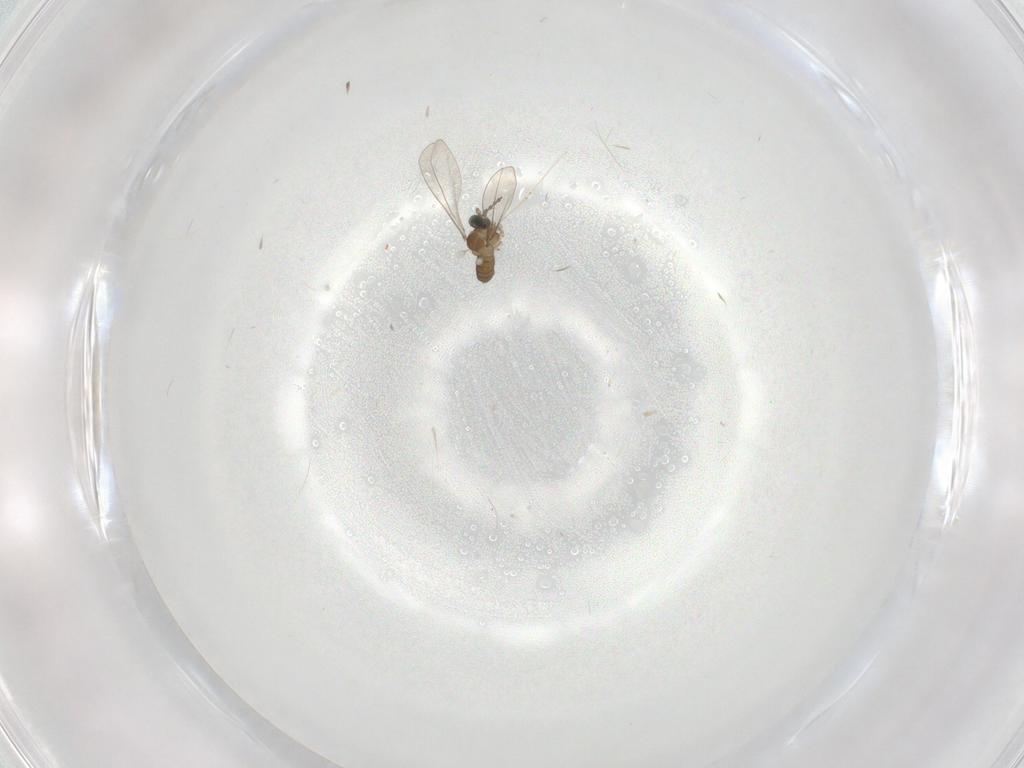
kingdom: Animalia
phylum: Arthropoda
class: Insecta
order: Diptera
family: Cecidomyiidae
